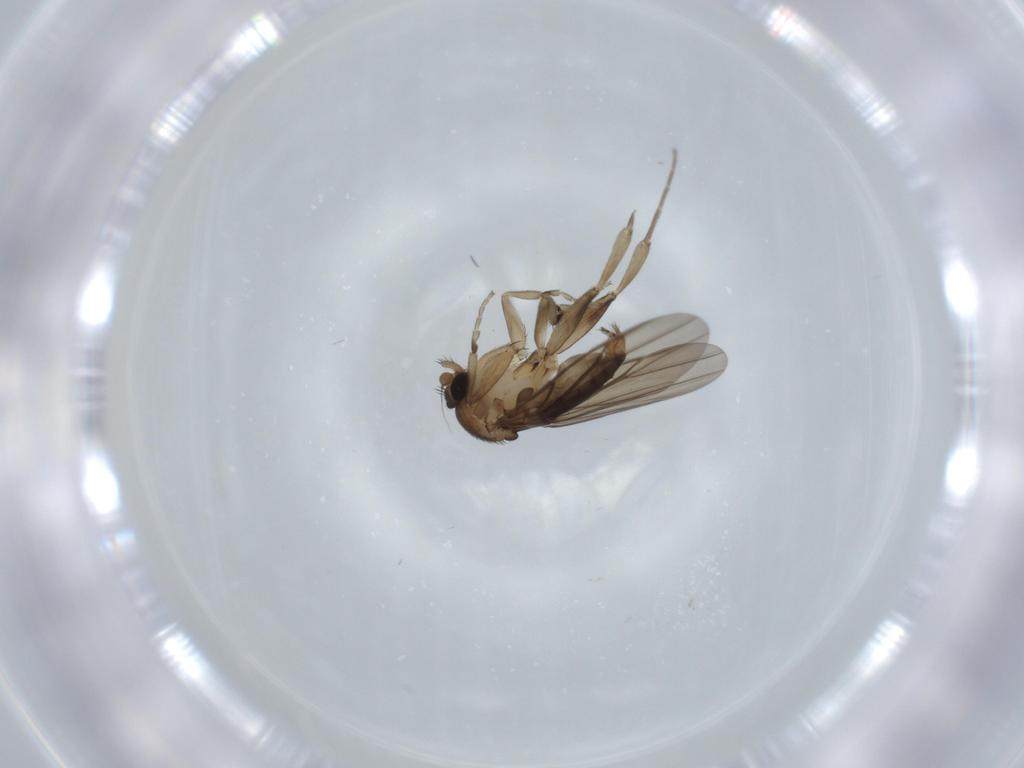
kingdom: Animalia
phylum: Arthropoda
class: Insecta
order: Diptera
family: Phoridae
